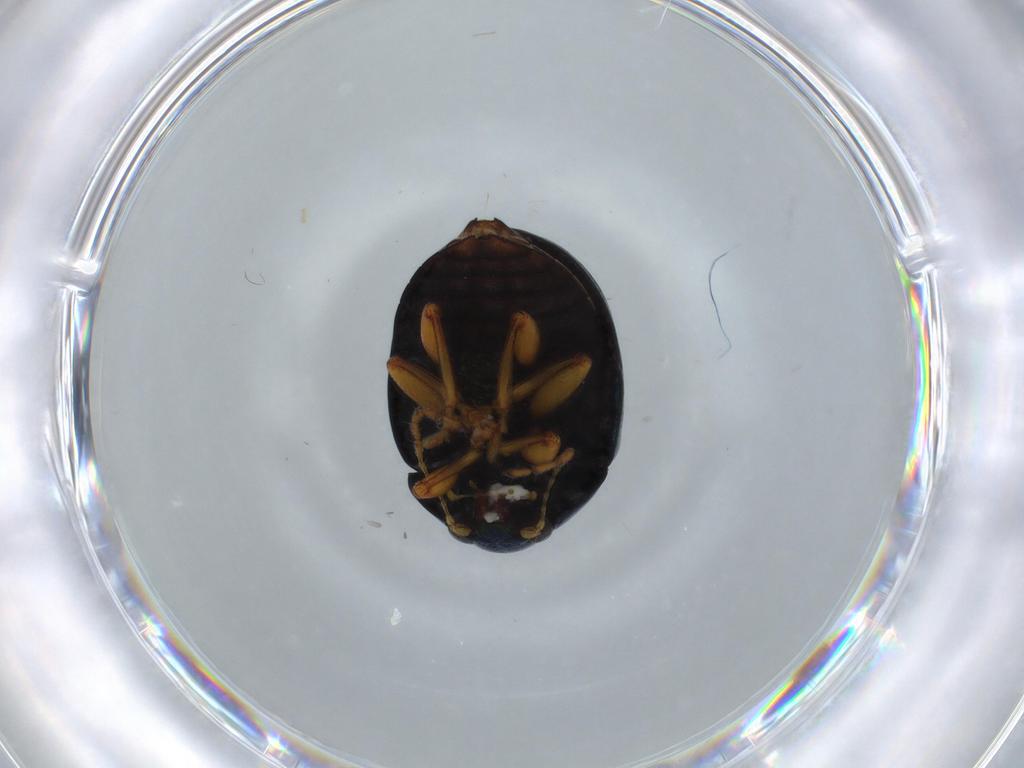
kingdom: Animalia
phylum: Arthropoda
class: Insecta
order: Coleoptera
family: Chrysomelidae
